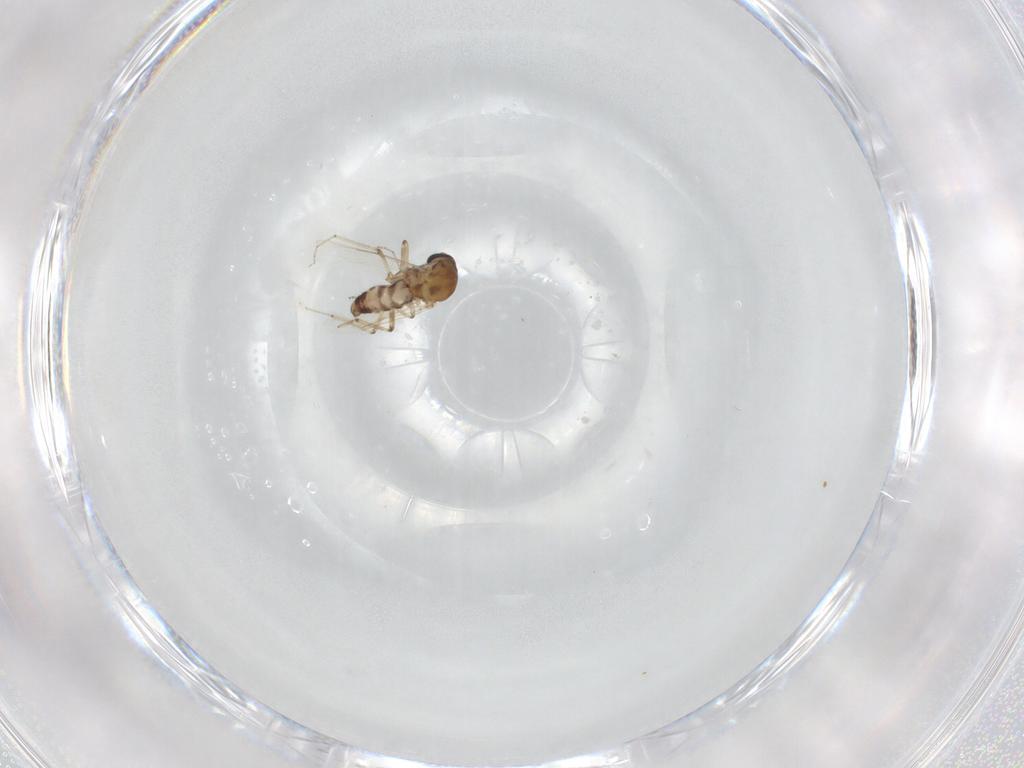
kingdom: Animalia
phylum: Arthropoda
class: Insecta
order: Diptera
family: Ceratopogonidae
